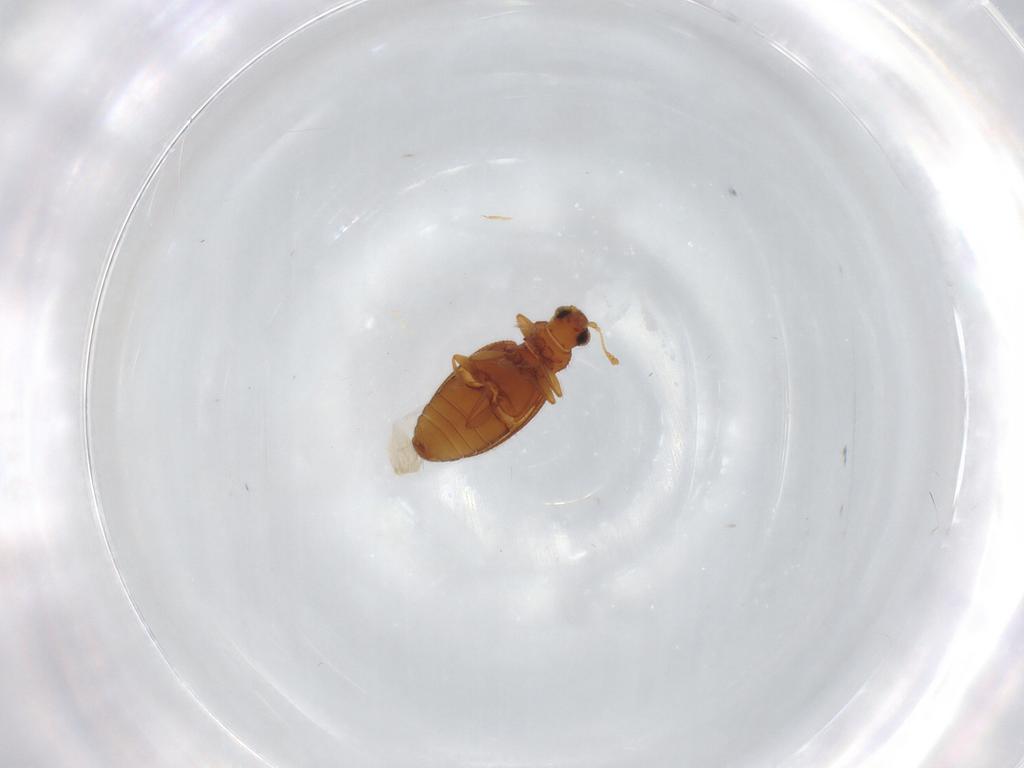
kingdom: Animalia
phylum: Arthropoda
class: Insecta
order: Coleoptera
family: Latridiidae
